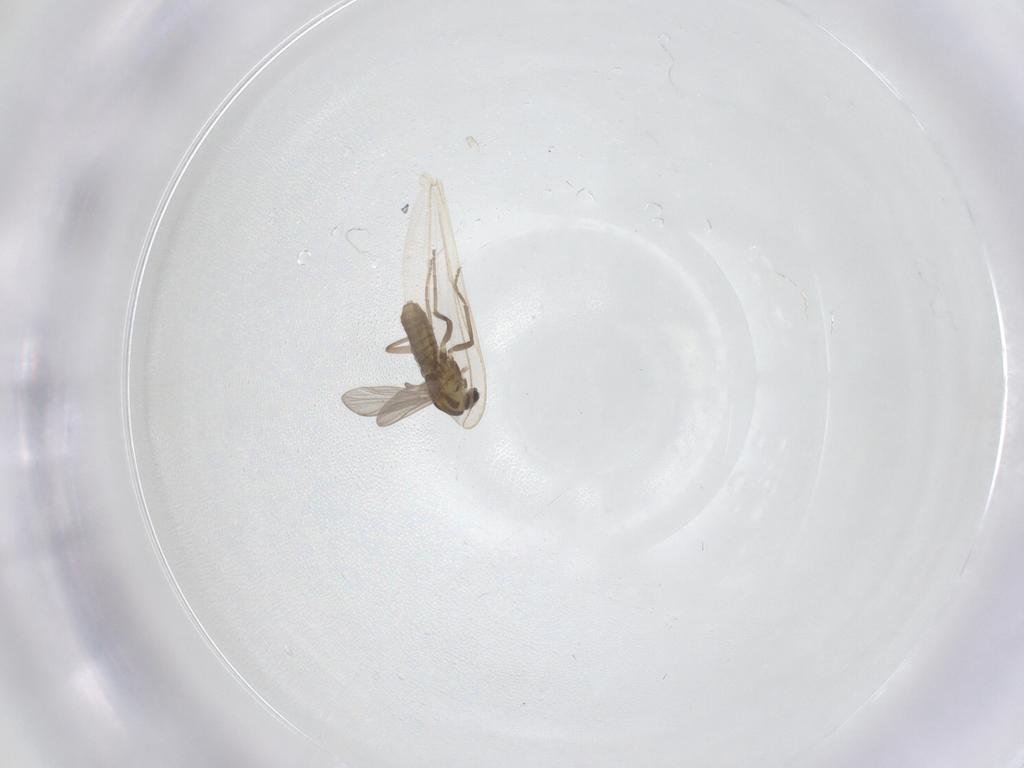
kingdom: Animalia
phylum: Arthropoda
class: Insecta
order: Diptera
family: Chironomidae
